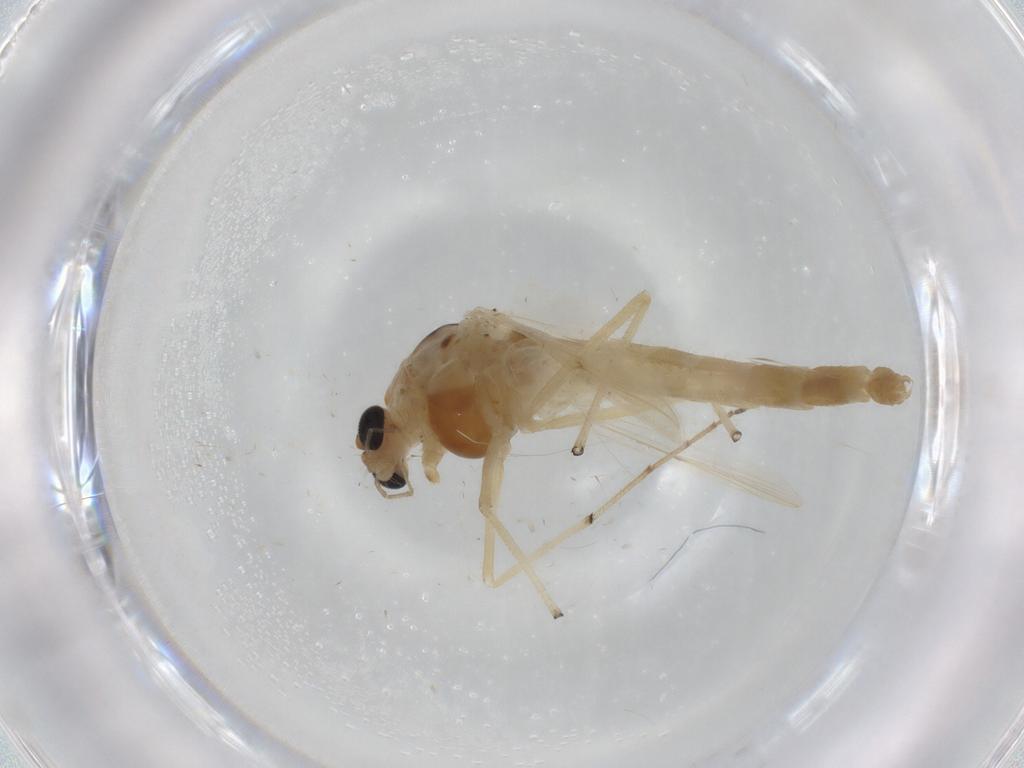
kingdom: Animalia
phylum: Arthropoda
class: Insecta
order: Diptera
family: Chironomidae
